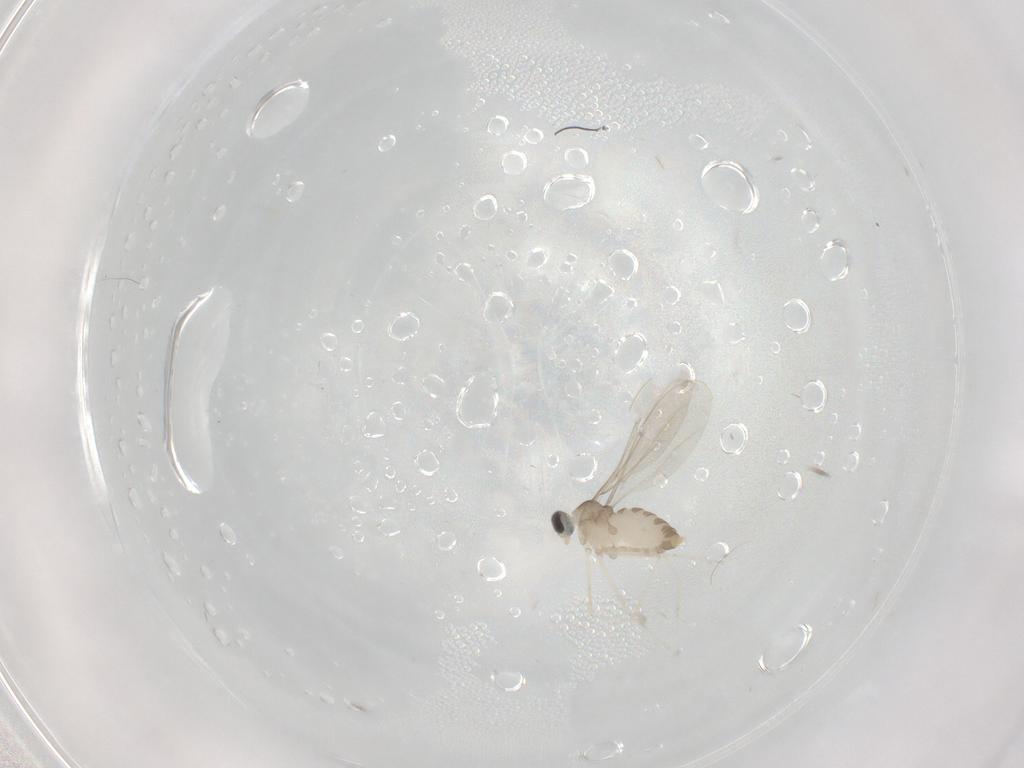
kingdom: Animalia
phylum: Arthropoda
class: Insecta
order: Diptera
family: Cecidomyiidae
